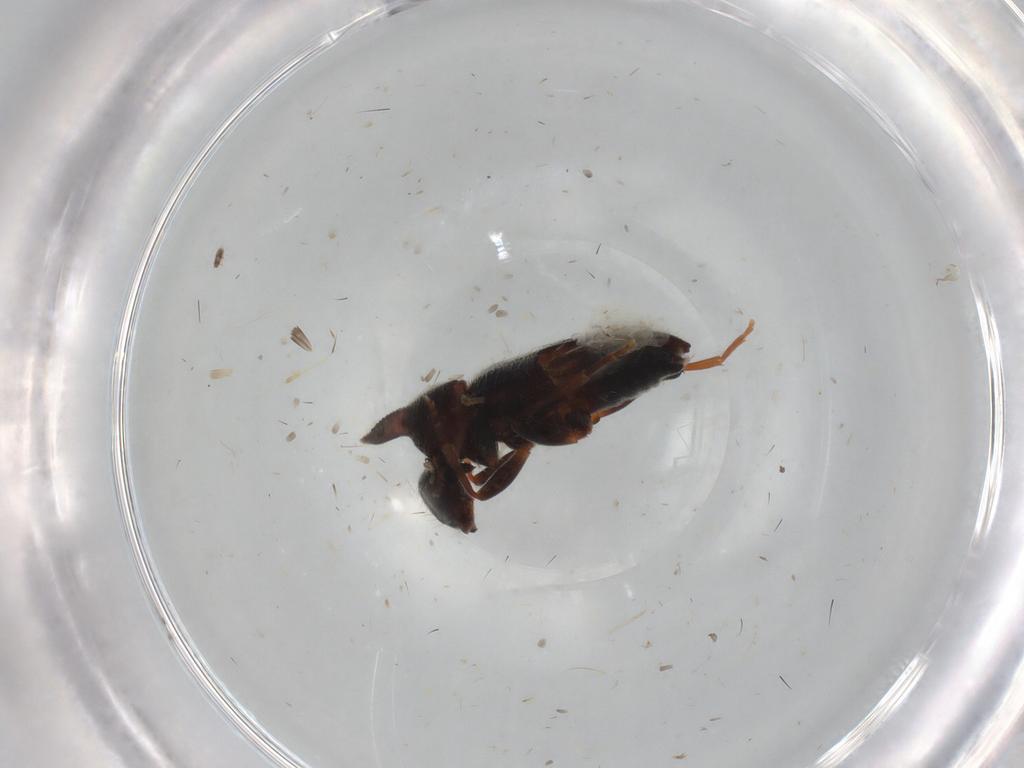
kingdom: Animalia
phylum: Arthropoda
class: Insecta
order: Coleoptera
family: Anthicidae
